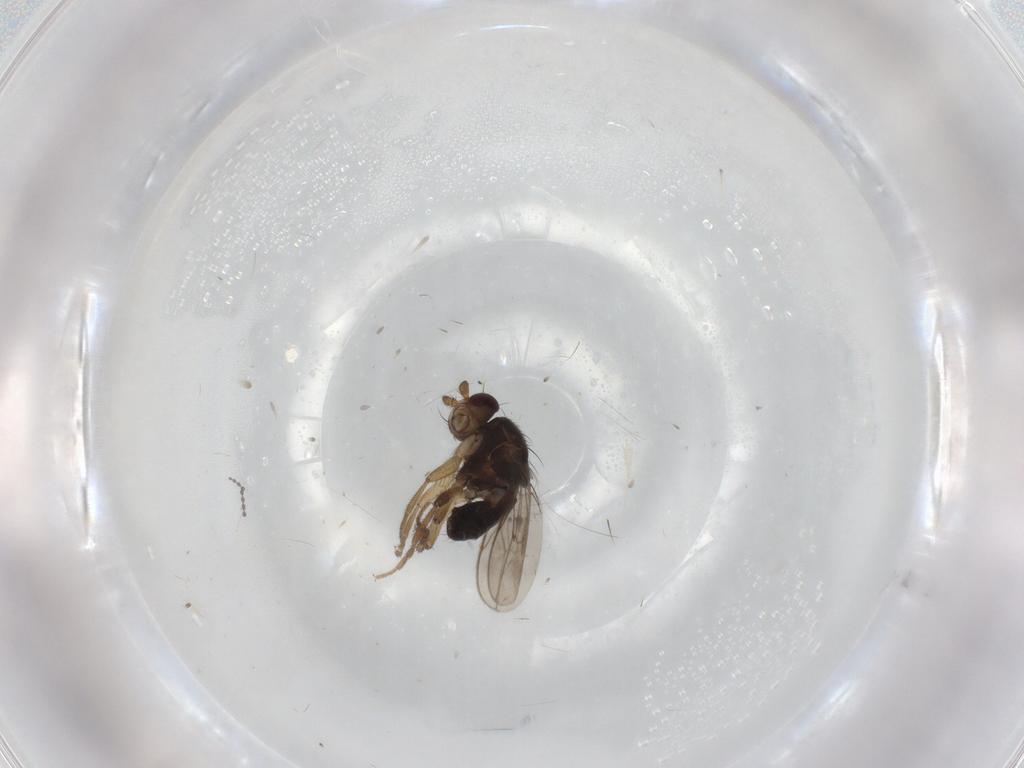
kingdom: Animalia
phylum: Arthropoda
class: Insecta
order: Diptera
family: Sphaeroceridae
